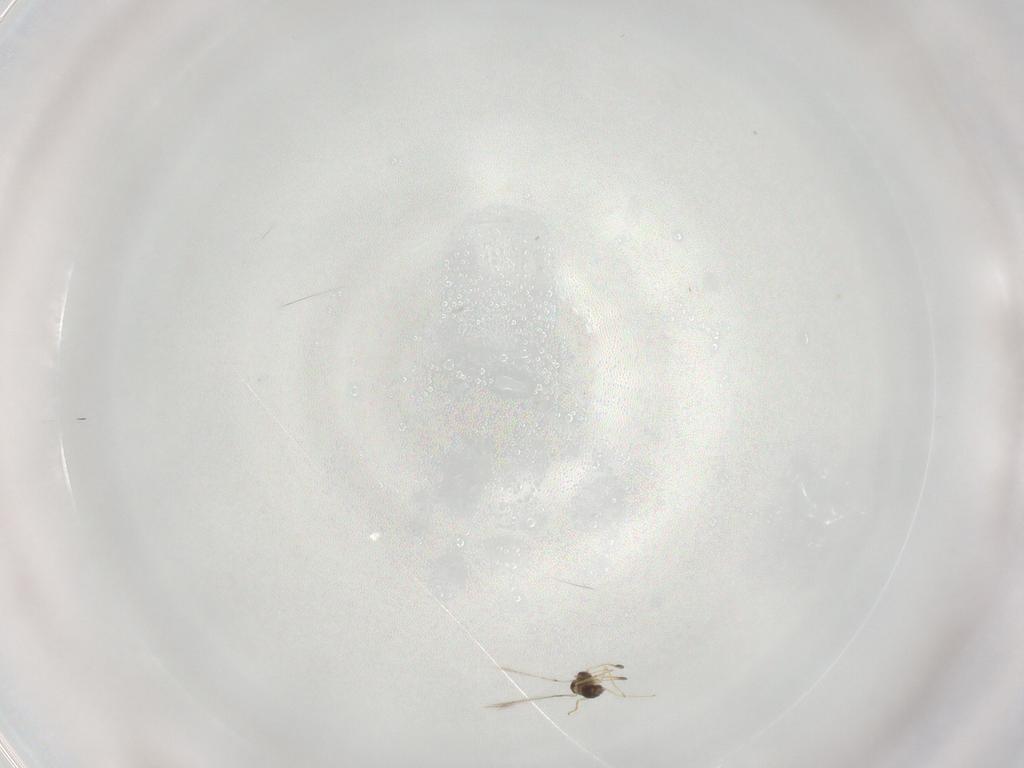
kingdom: Animalia
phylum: Arthropoda
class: Insecta
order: Hymenoptera
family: Mymaridae
